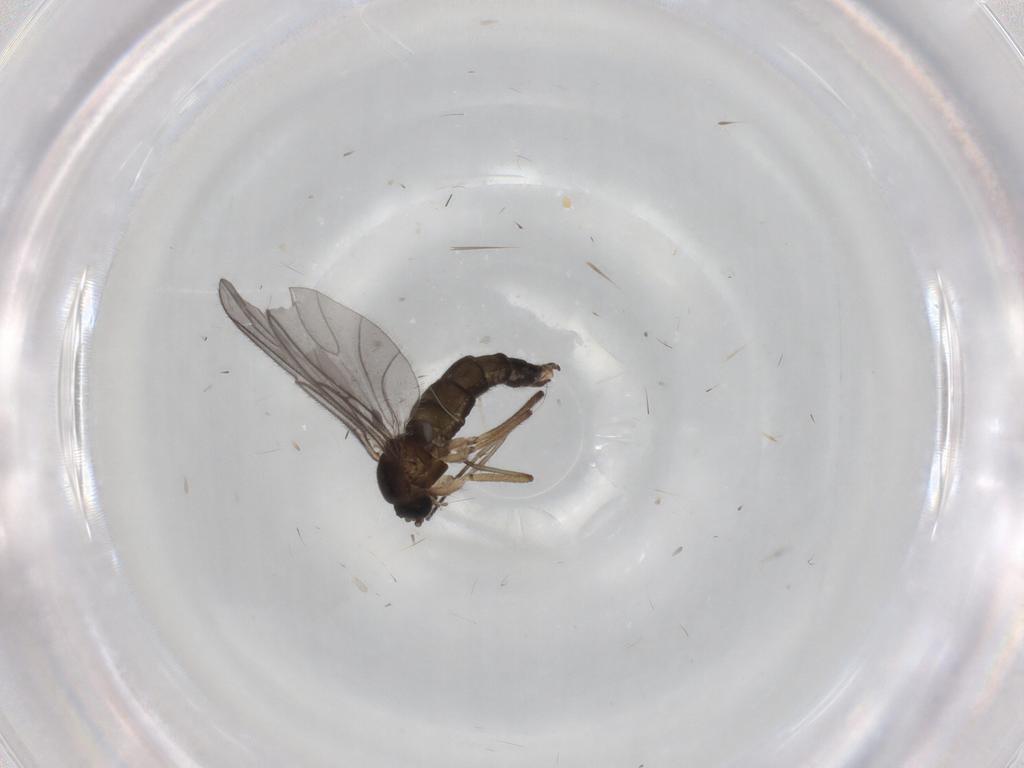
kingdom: Animalia
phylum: Arthropoda
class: Insecta
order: Diptera
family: Sciaridae
